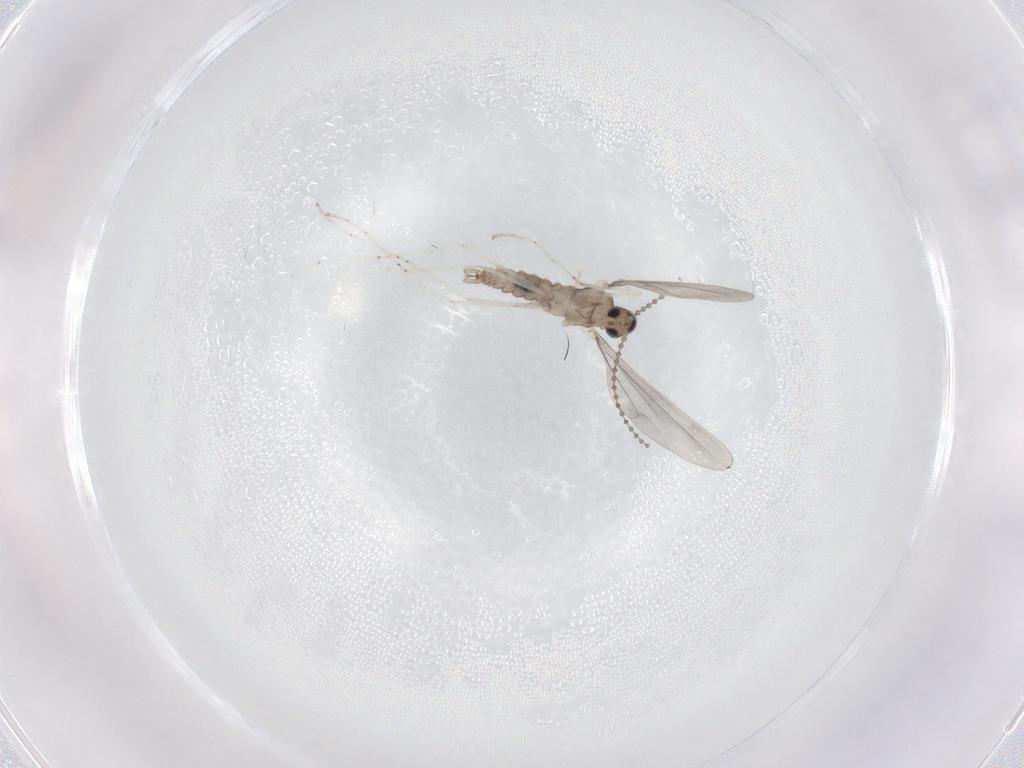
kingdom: Animalia
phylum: Arthropoda
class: Insecta
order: Diptera
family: Cecidomyiidae
